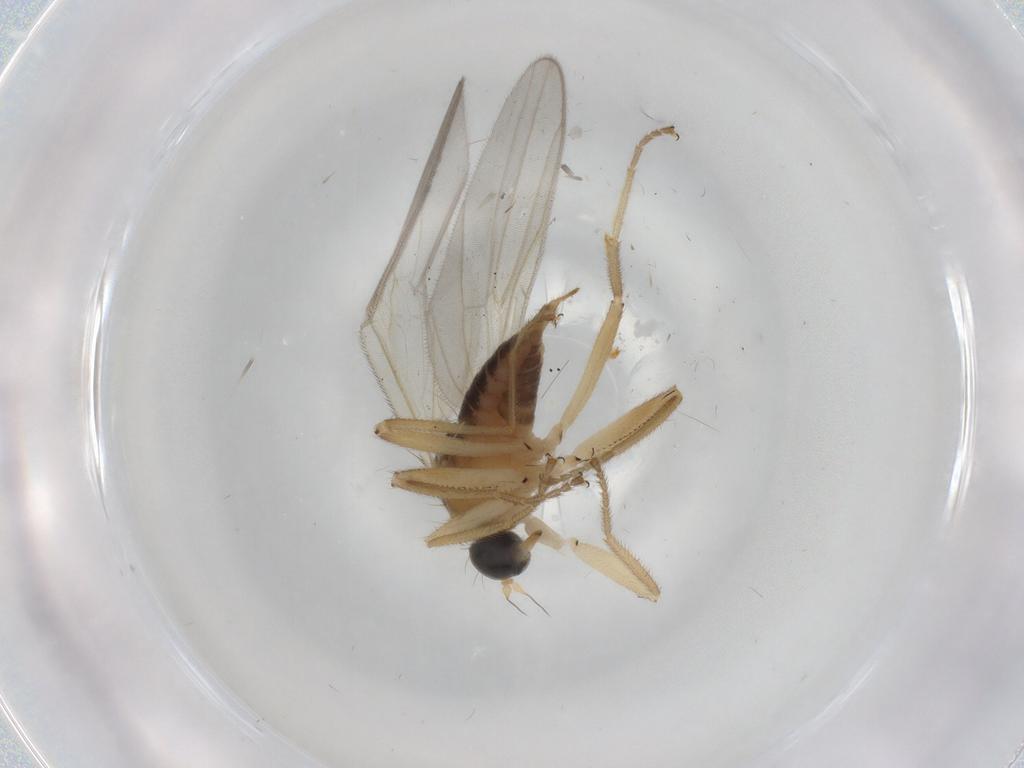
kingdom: Animalia
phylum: Arthropoda
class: Insecta
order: Diptera
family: Hybotidae
